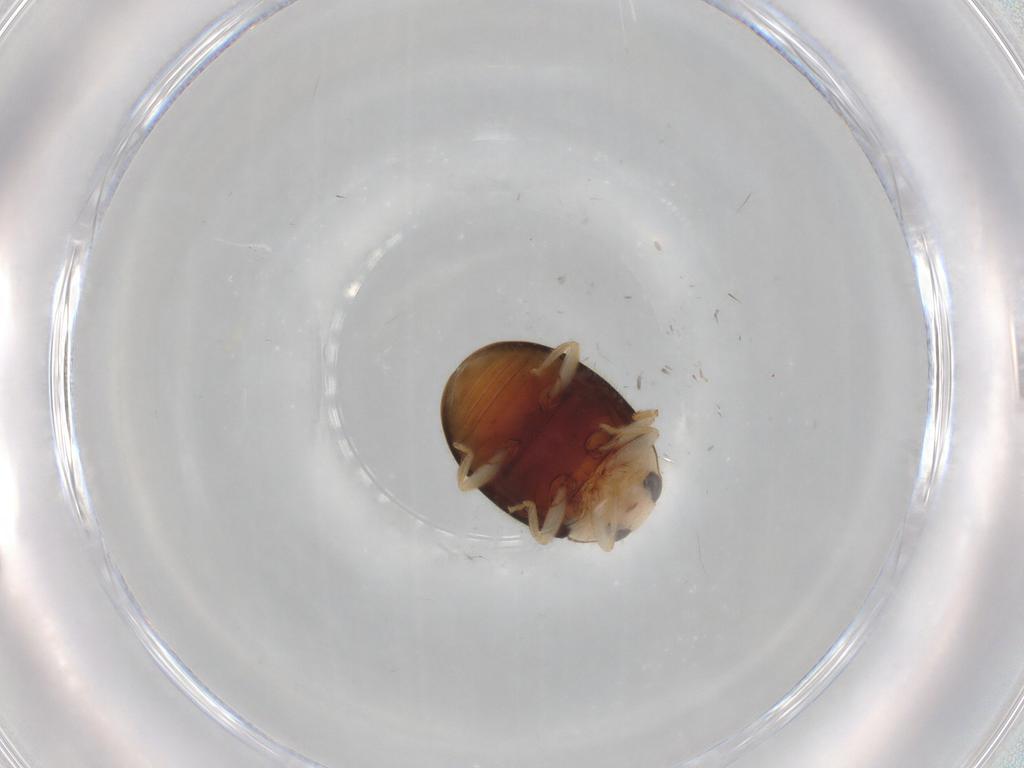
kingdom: Animalia
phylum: Arthropoda
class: Insecta
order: Coleoptera
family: Coccinellidae
